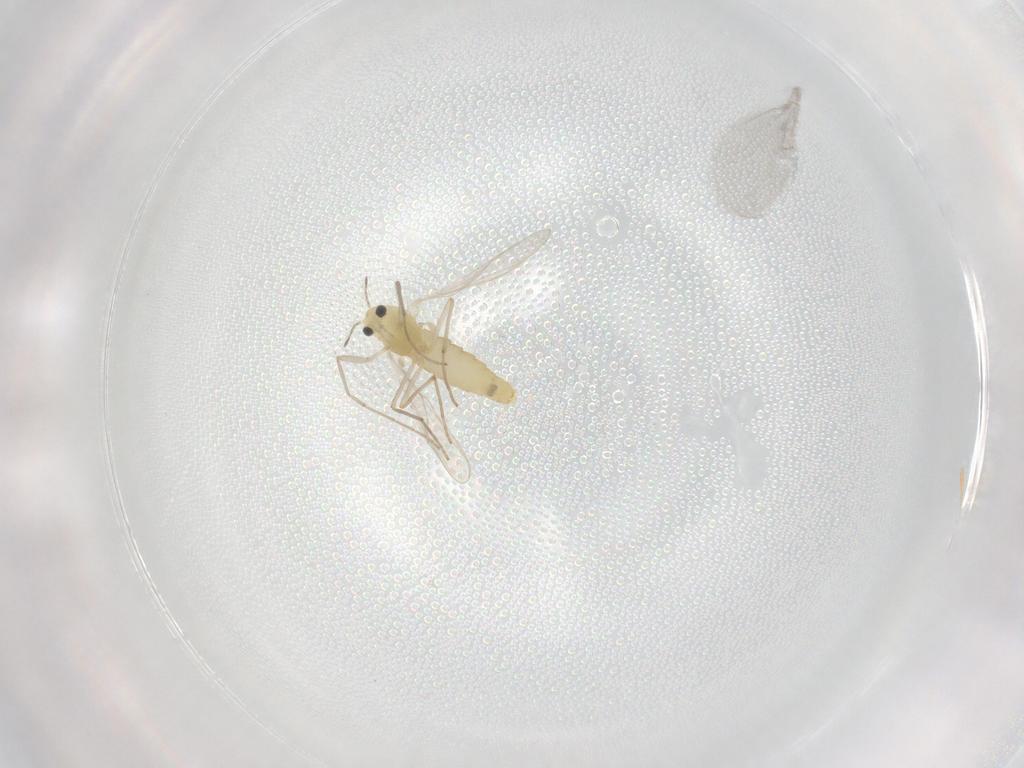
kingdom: Animalia
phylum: Arthropoda
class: Insecta
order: Diptera
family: Chironomidae
